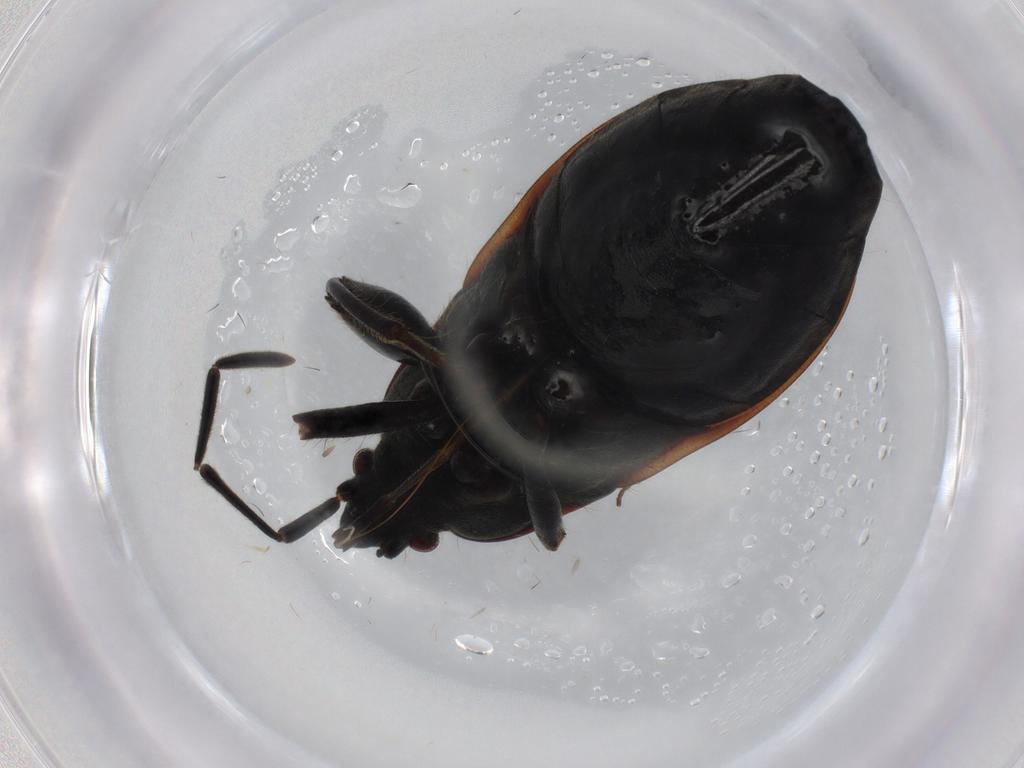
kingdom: Animalia
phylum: Arthropoda
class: Insecta
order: Hemiptera
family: Rhyparochromidae
